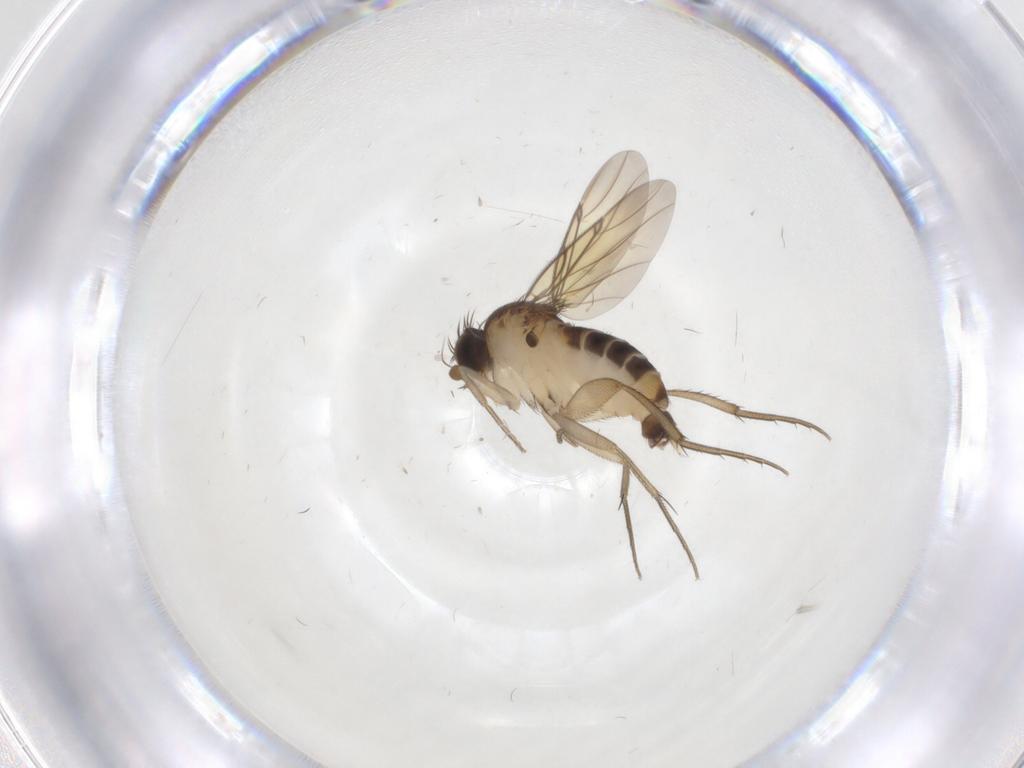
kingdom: Animalia
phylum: Arthropoda
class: Insecta
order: Diptera
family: Phoridae
